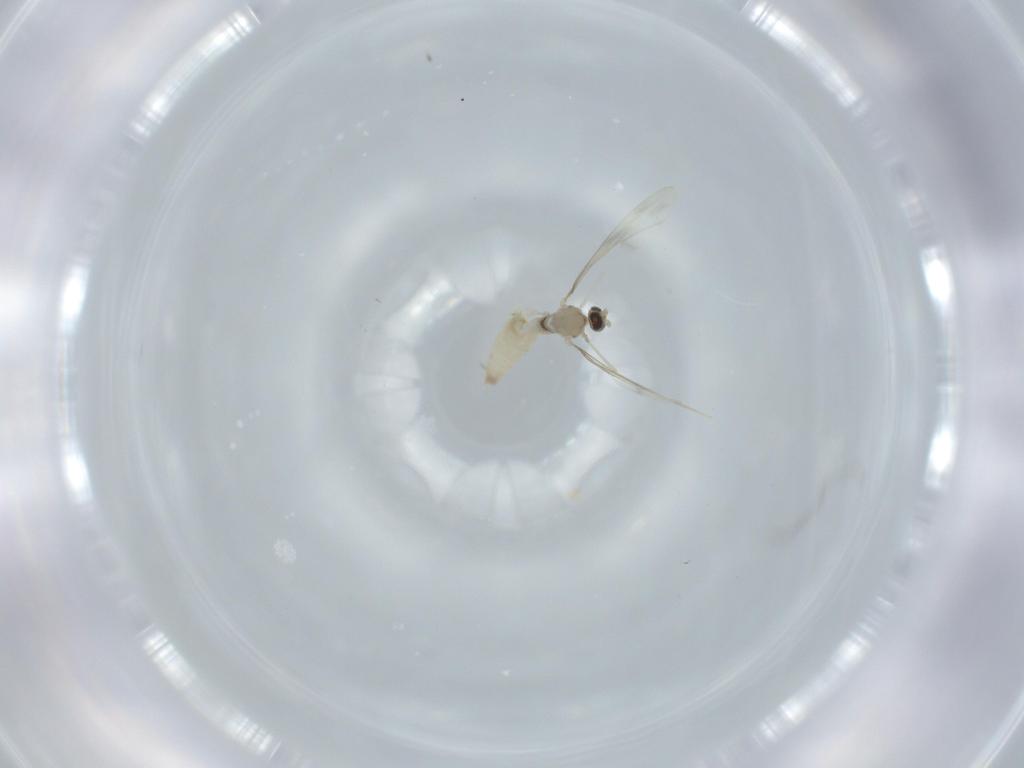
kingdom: Animalia
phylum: Arthropoda
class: Insecta
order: Diptera
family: Cecidomyiidae
